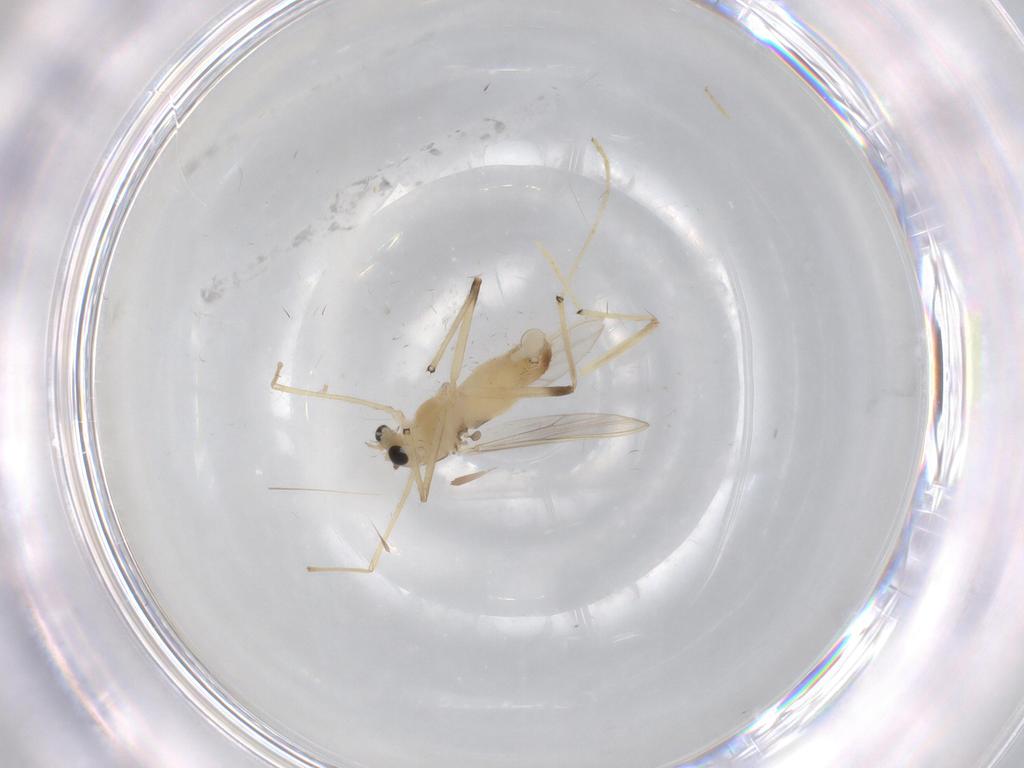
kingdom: Animalia
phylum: Arthropoda
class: Insecta
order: Diptera
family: Chironomidae
